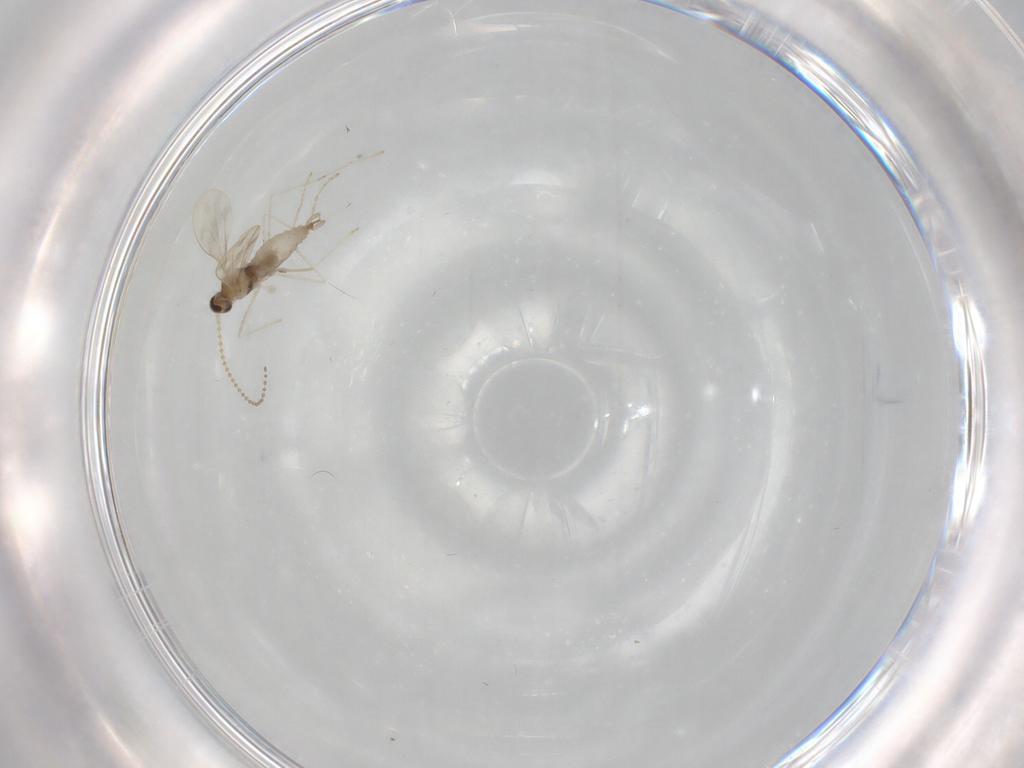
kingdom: Animalia
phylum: Arthropoda
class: Insecta
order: Diptera
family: Cecidomyiidae
